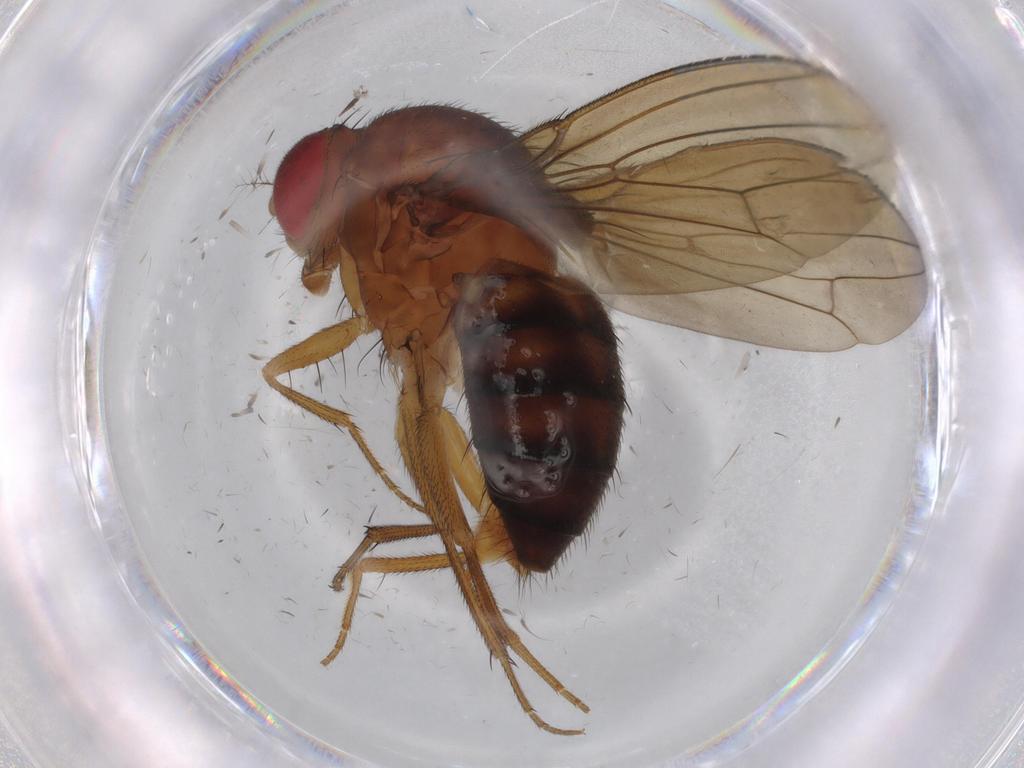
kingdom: Animalia
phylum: Arthropoda
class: Insecta
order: Diptera
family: Drosophilidae
